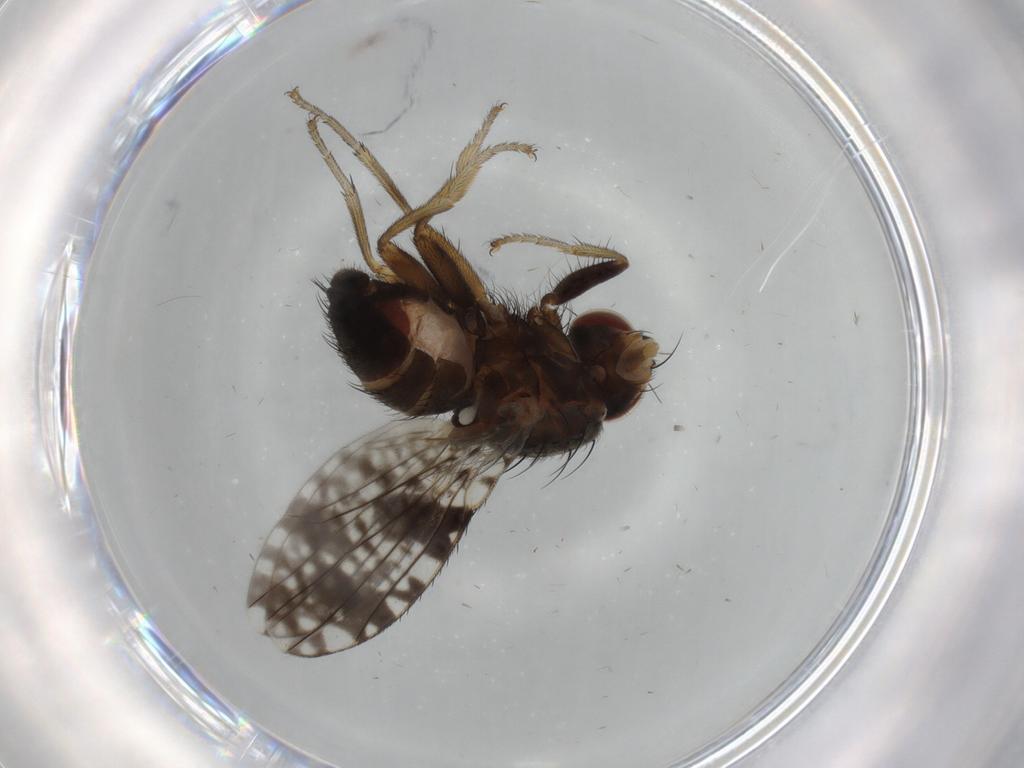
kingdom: Animalia
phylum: Arthropoda
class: Insecta
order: Diptera
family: Tephritidae
